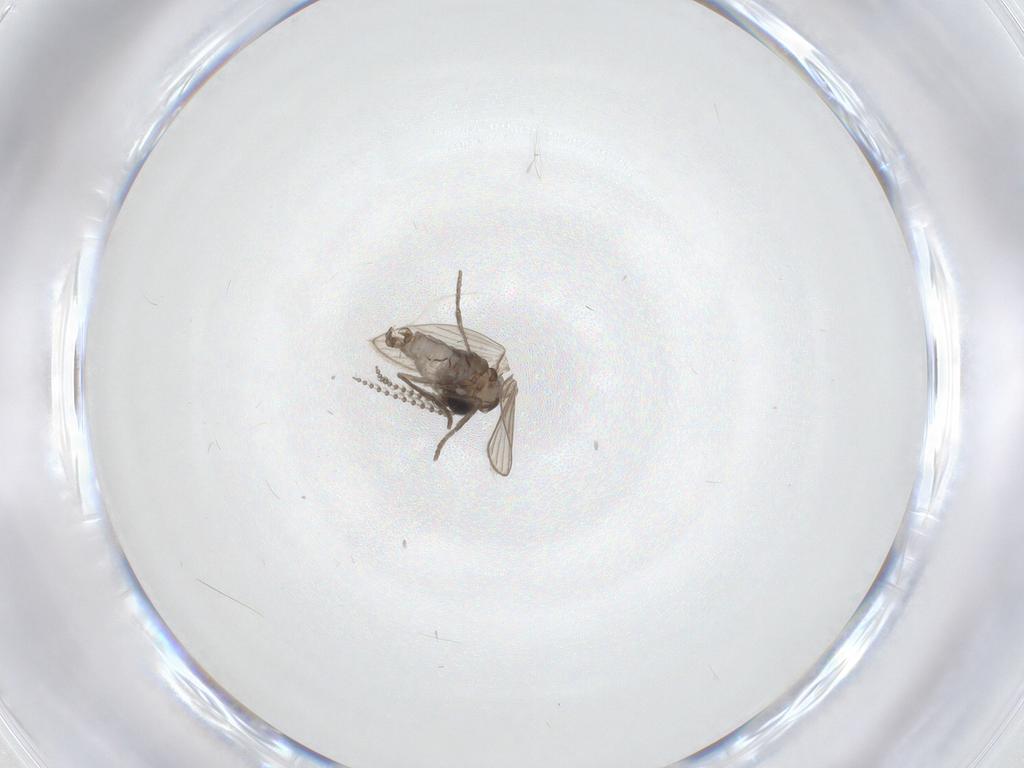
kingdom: Animalia
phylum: Arthropoda
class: Insecta
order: Diptera
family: Psychodidae
